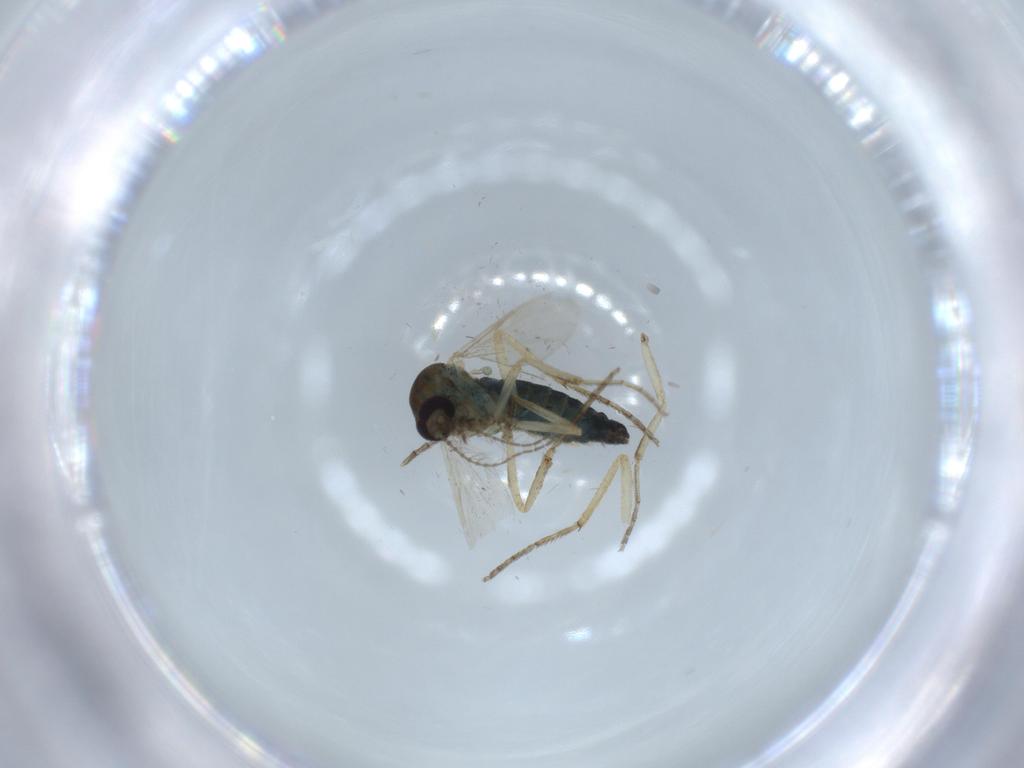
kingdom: Animalia
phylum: Arthropoda
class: Insecta
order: Diptera
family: Ceratopogonidae
